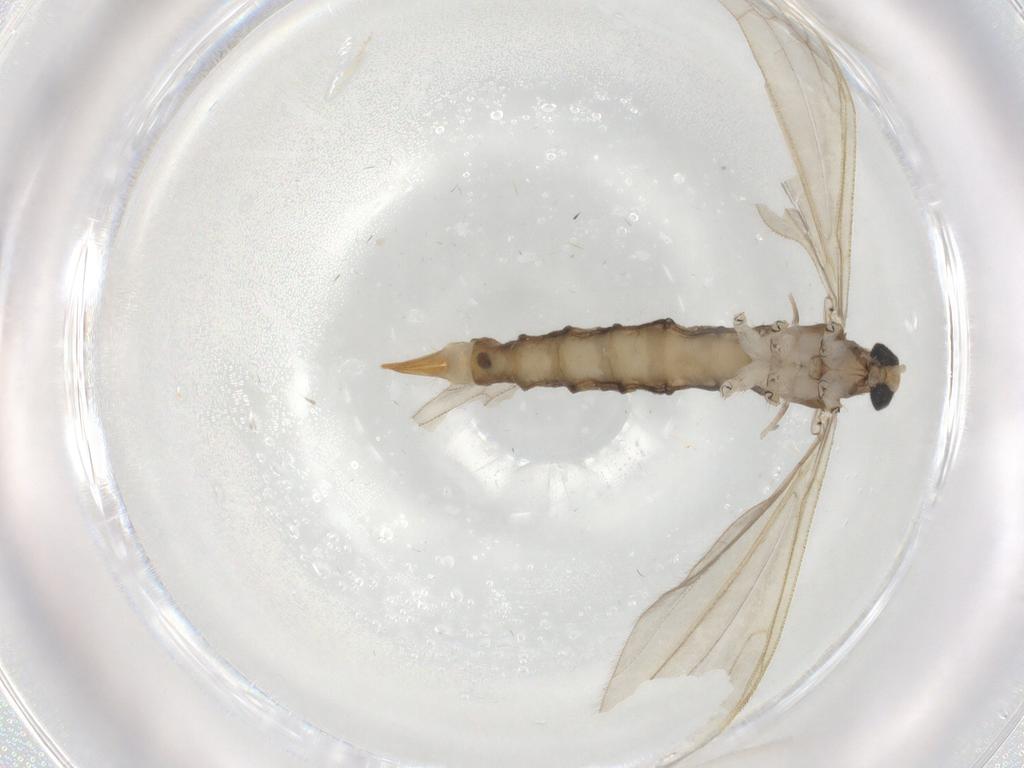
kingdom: Animalia
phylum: Arthropoda
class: Insecta
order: Diptera
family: Limoniidae
